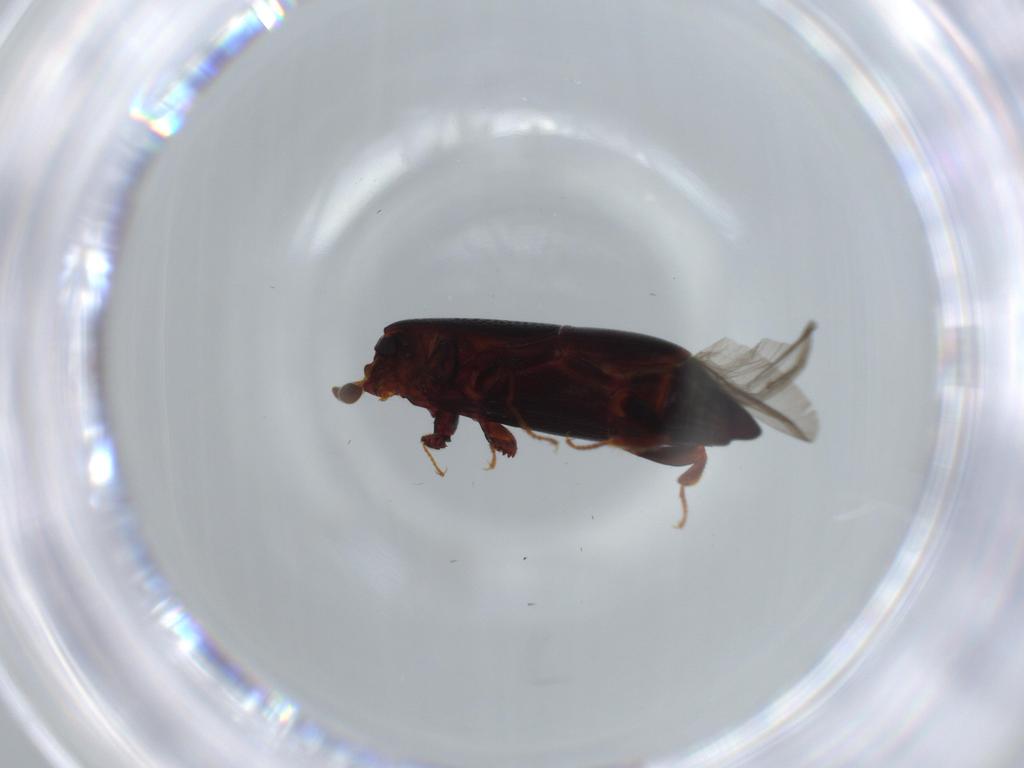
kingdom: Animalia
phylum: Arthropoda
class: Insecta
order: Coleoptera
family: Histeridae
